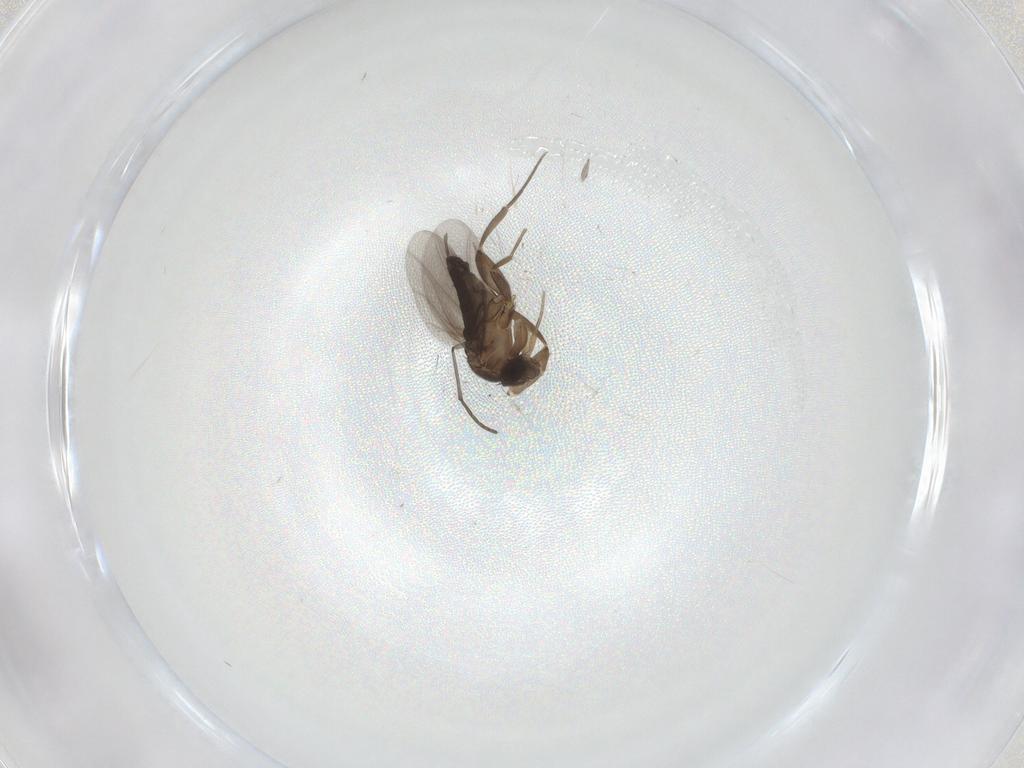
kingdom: Animalia
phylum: Arthropoda
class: Insecta
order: Diptera
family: Phoridae
